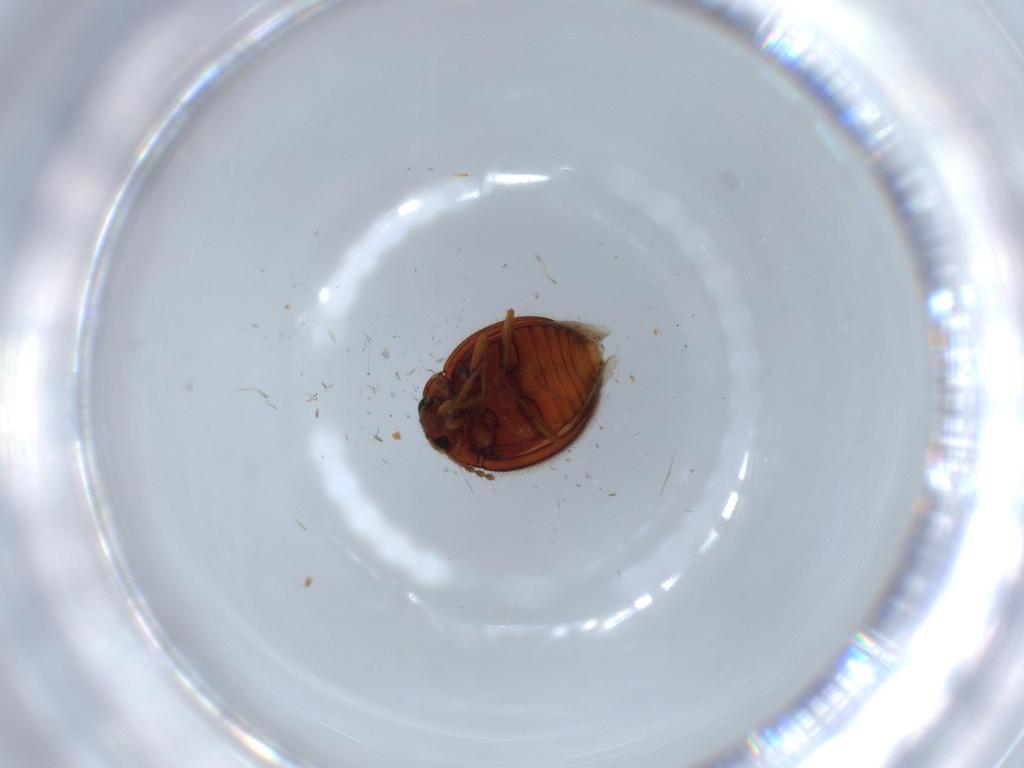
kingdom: Animalia
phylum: Arthropoda
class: Insecta
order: Coleoptera
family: Anamorphidae
